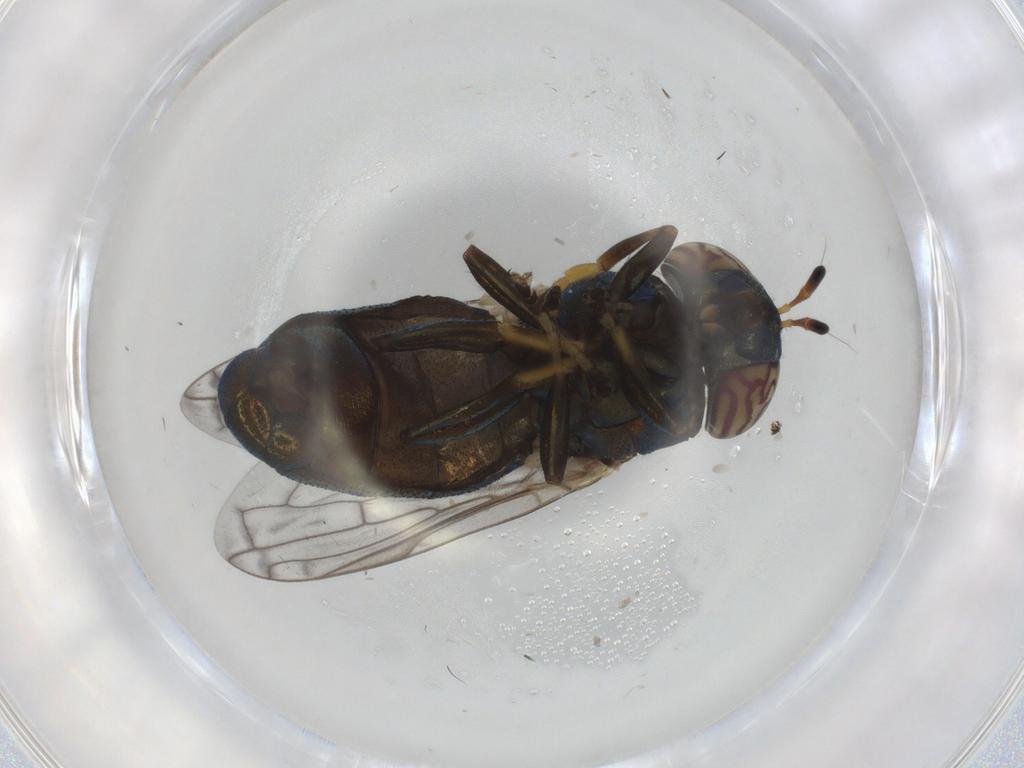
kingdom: Animalia
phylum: Arthropoda
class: Insecta
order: Diptera
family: Syrphidae
